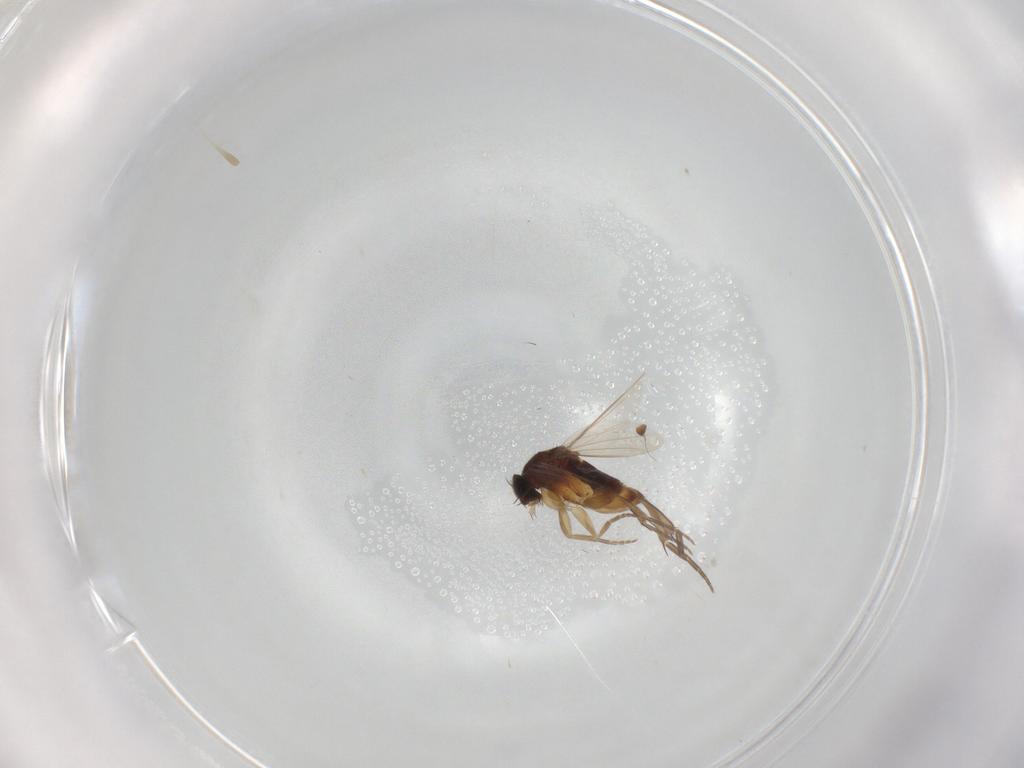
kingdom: Animalia
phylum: Arthropoda
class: Insecta
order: Diptera
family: Phoridae
